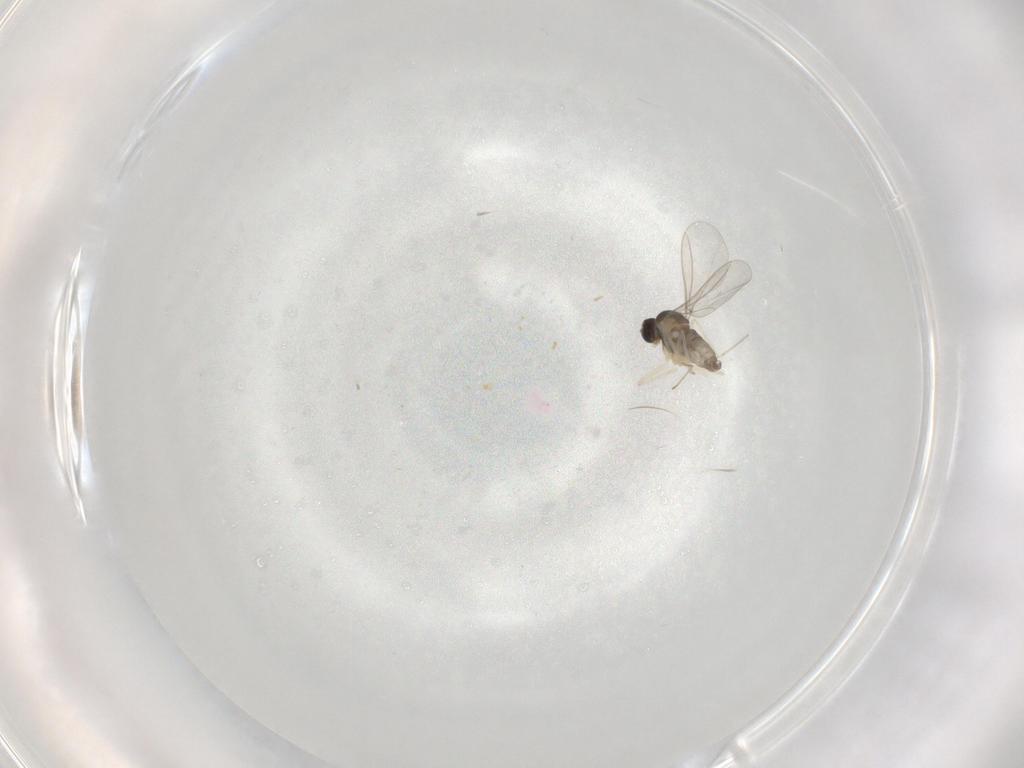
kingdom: Animalia
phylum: Arthropoda
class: Insecta
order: Diptera
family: Cecidomyiidae
